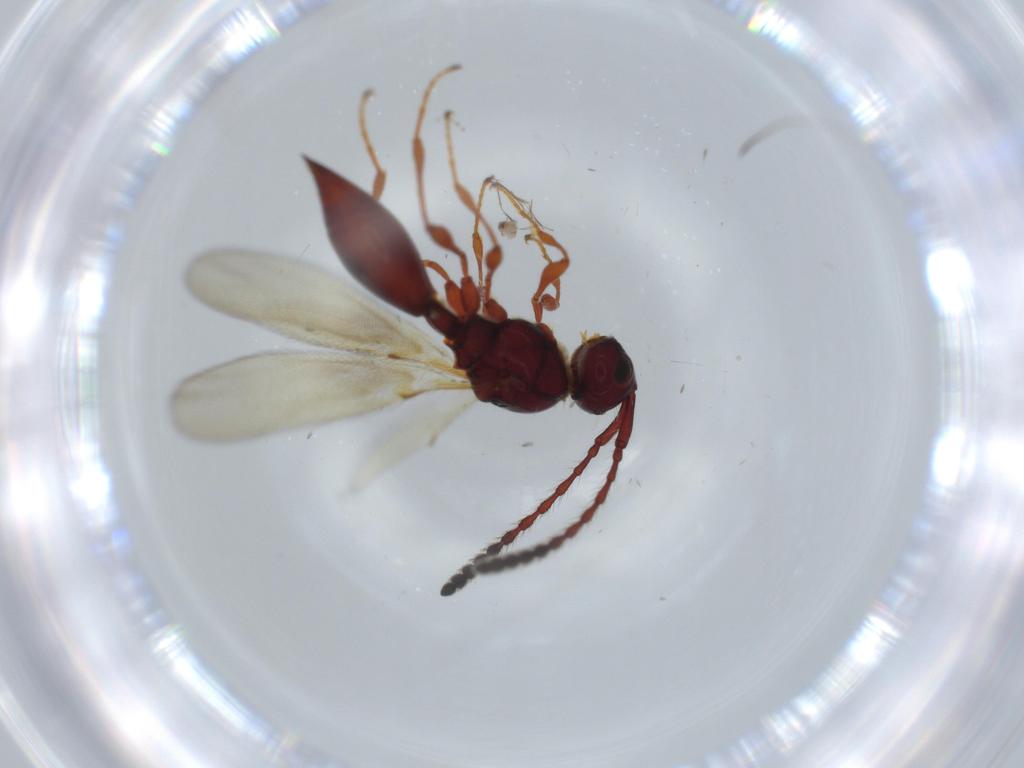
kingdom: Animalia
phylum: Arthropoda
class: Insecta
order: Hymenoptera
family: Diapriidae
